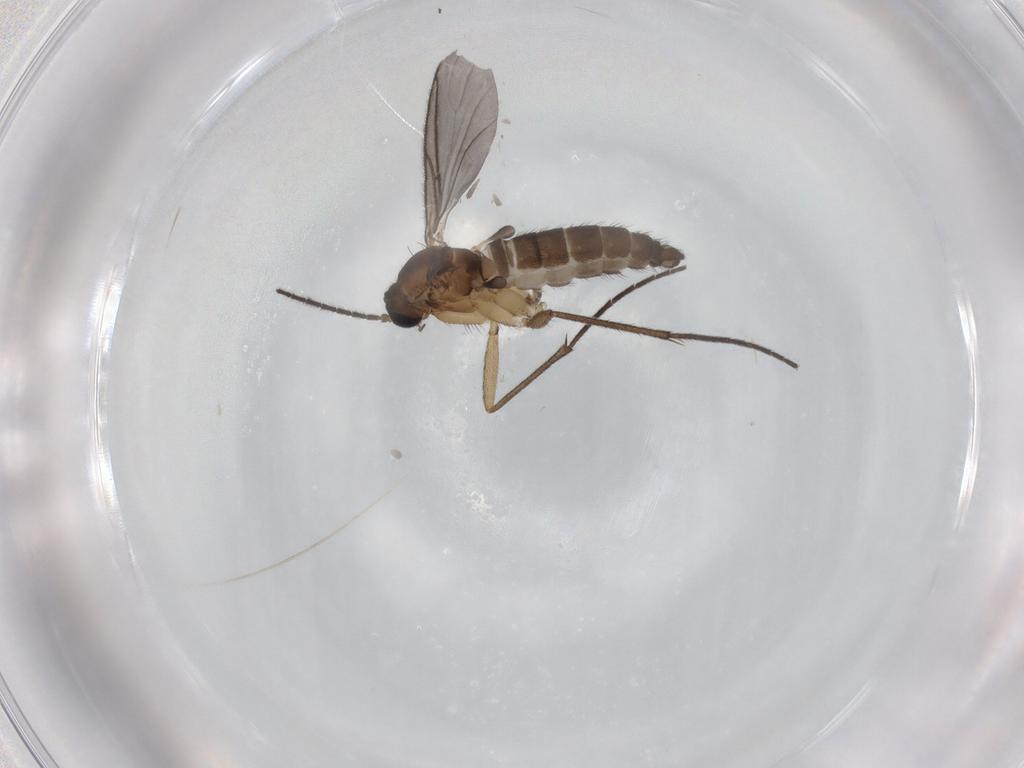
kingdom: Animalia
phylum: Arthropoda
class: Insecta
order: Diptera
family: Sciaridae
